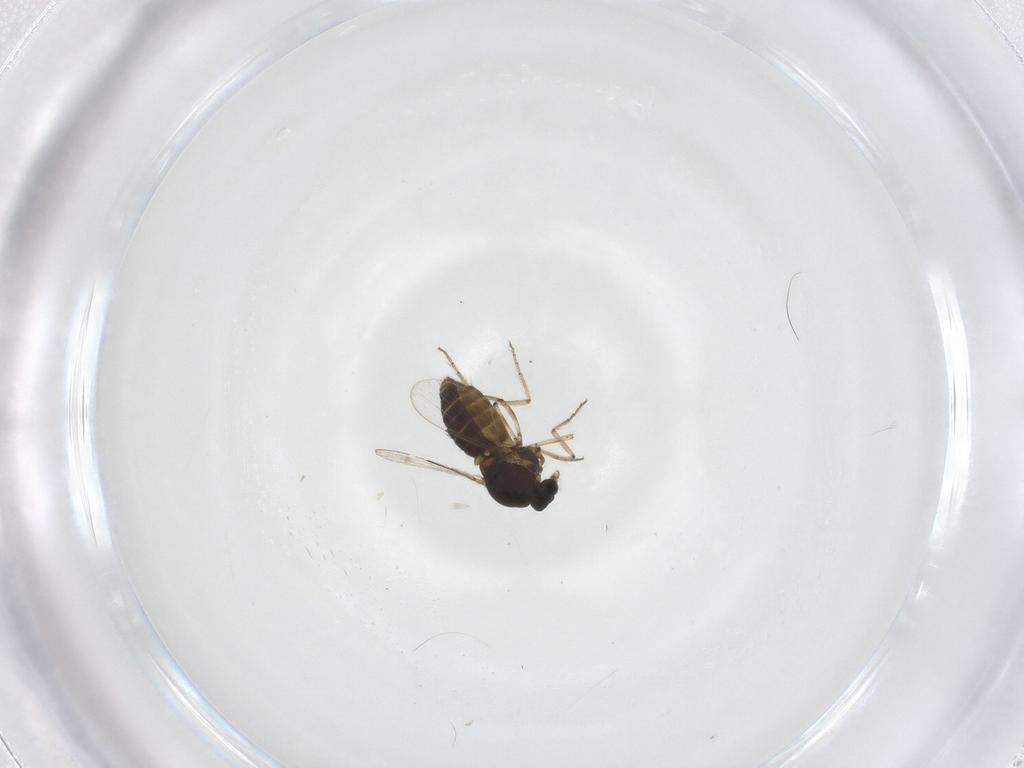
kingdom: Animalia
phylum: Arthropoda
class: Insecta
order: Diptera
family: Ceratopogonidae
